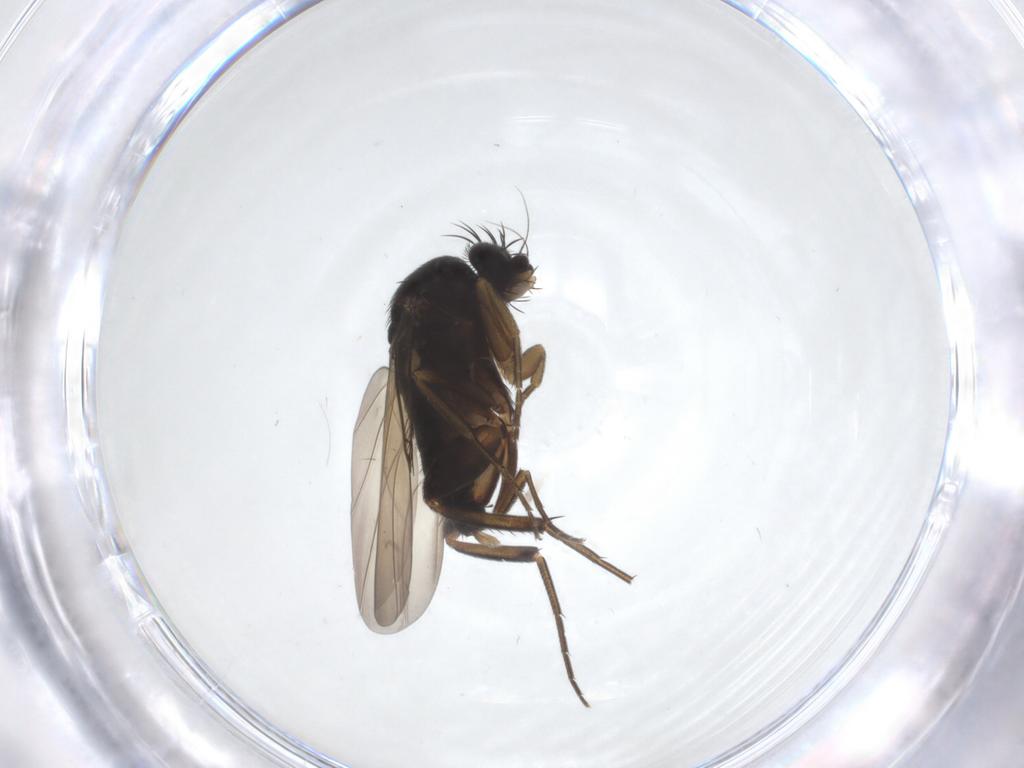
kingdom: Animalia
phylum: Arthropoda
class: Insecta
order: Diptera
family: Phoridae
